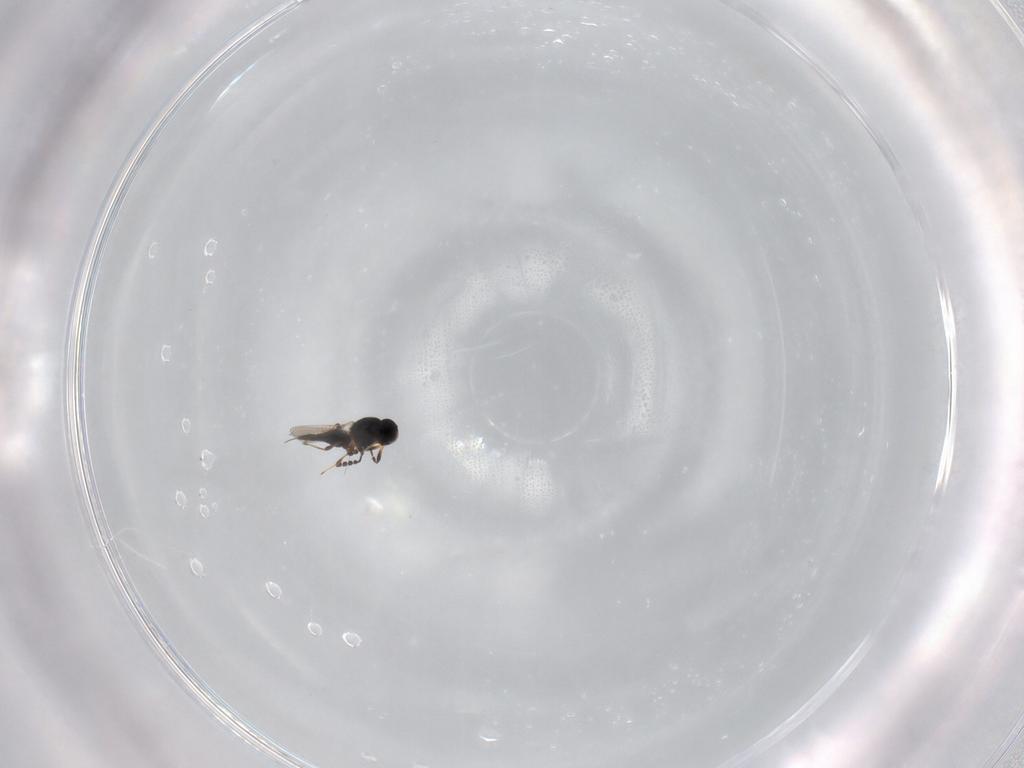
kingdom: Animalia
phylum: Arthropoda
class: Insecta
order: Hymenoptera
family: Platygastridae
